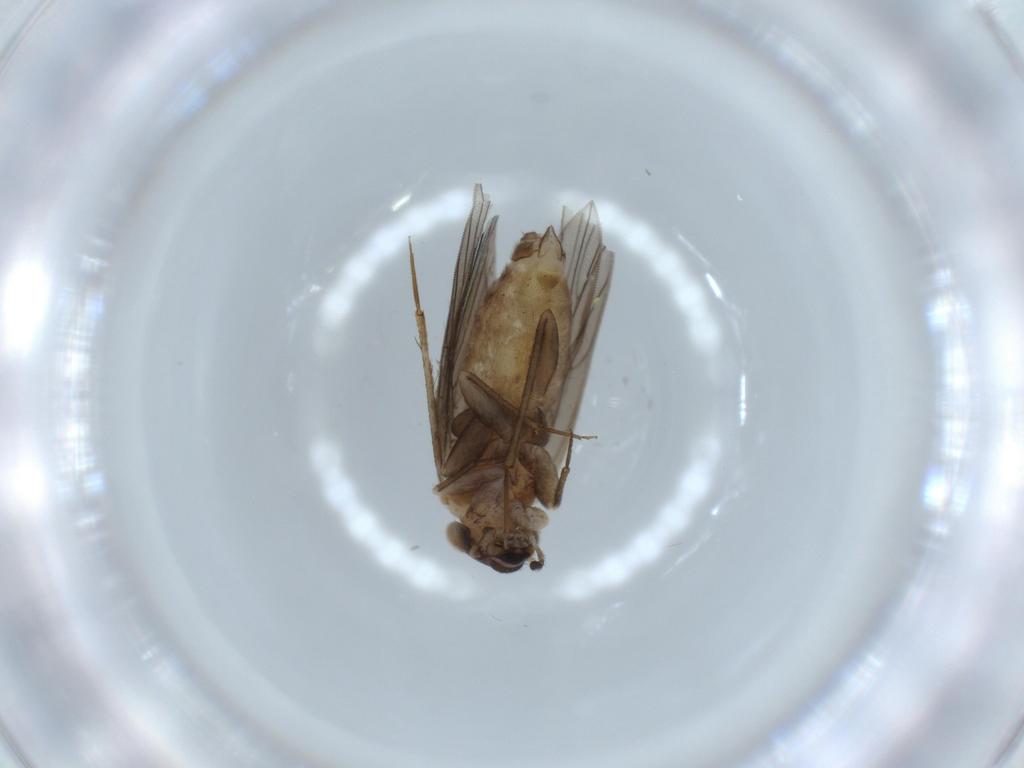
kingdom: Animalia
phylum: Arthropoda
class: Insecta
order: Psocodea
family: Lepidopsocidae
